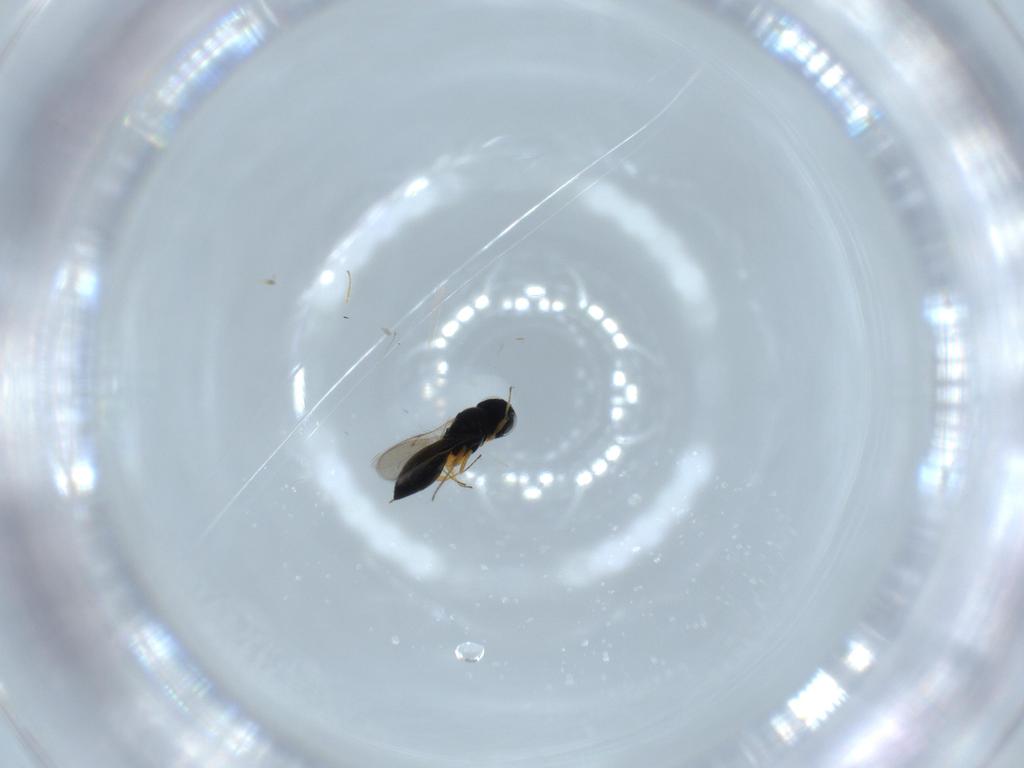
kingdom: Animalia
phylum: Arthropoda
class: Insecta
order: Hymenoptera
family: Scelionidae
